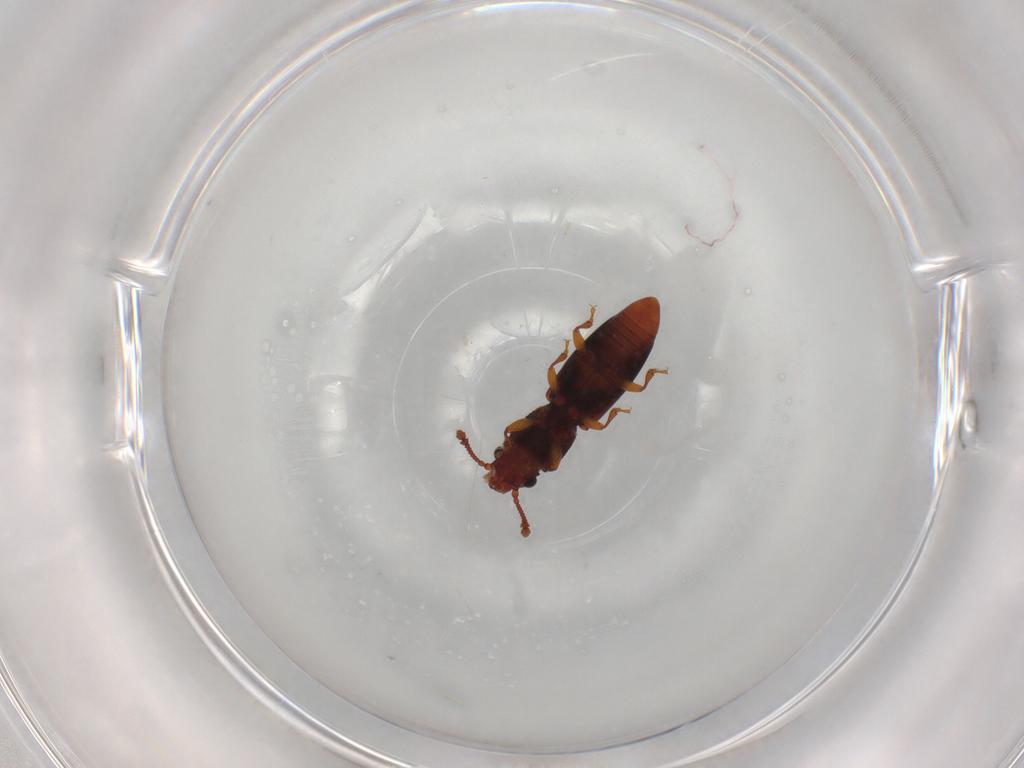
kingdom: Animalia
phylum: Arthropoda
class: Insecta
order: Coleoptera
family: Monotomidae
